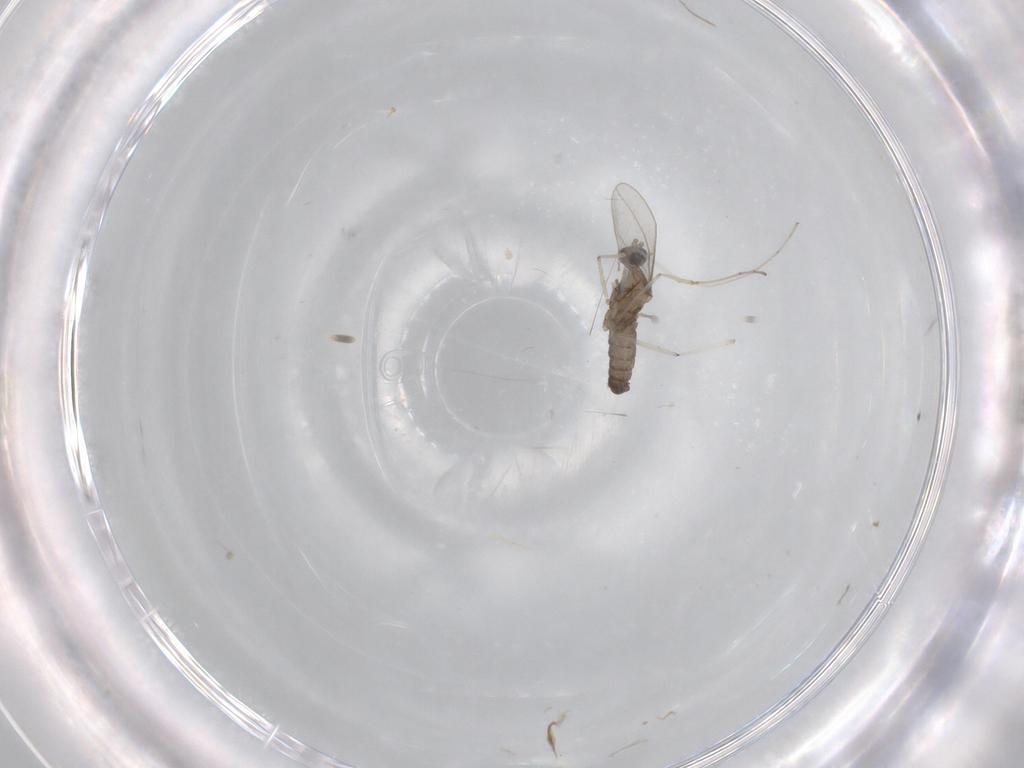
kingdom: Animalia
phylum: Arthropoda
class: Insecta
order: Diptera
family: Cecidomyiidae
